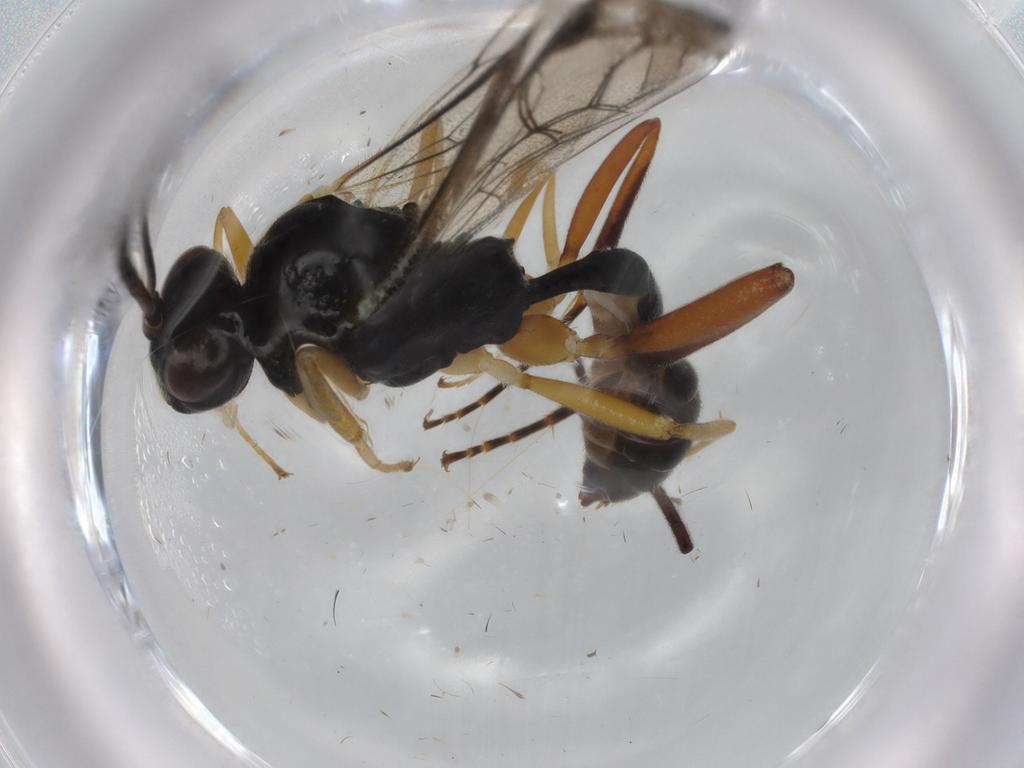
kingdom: Animalia
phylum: Arthropoda
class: Insecta
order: Hymenoptera
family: Ichneumonidae
